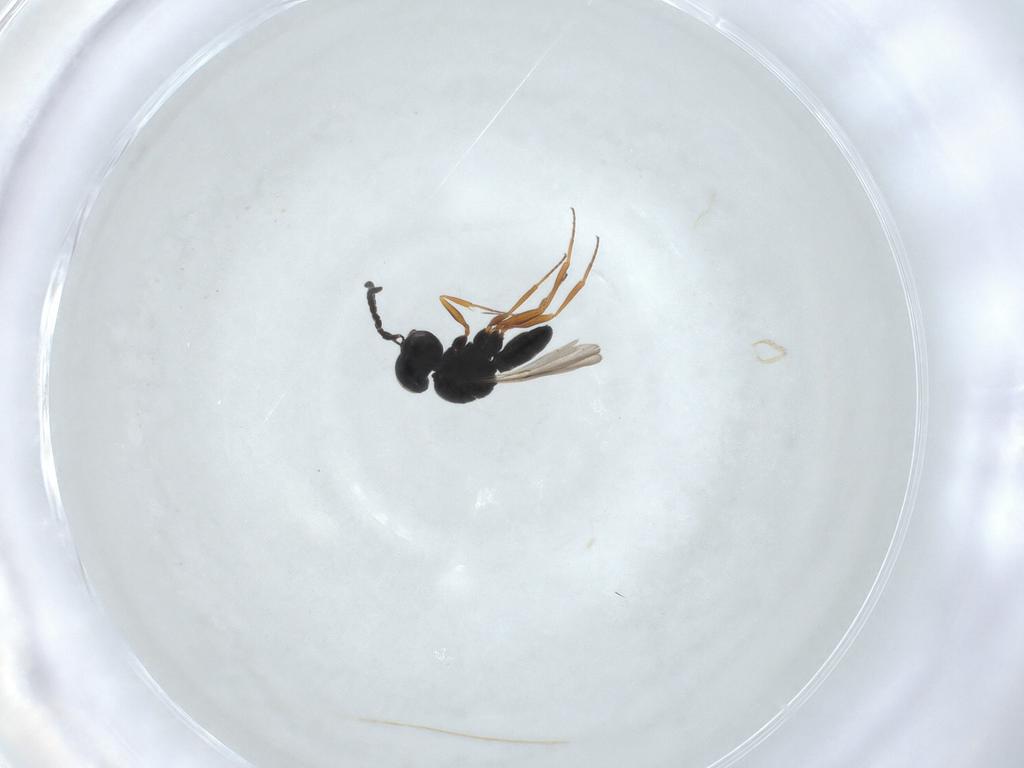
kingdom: Animalia
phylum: Arthropoda
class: Insecta
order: Hymenoptera
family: Scelionidae
